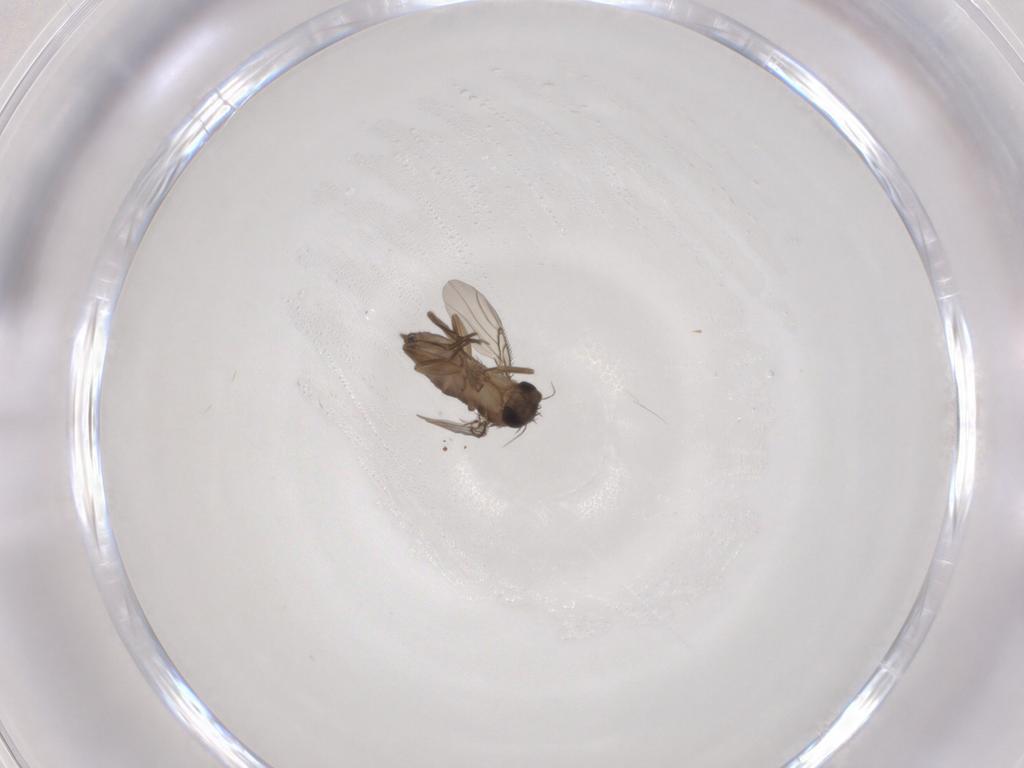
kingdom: Animalia
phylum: Arthropoda
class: Insecta
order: Diptera
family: Phoridae
